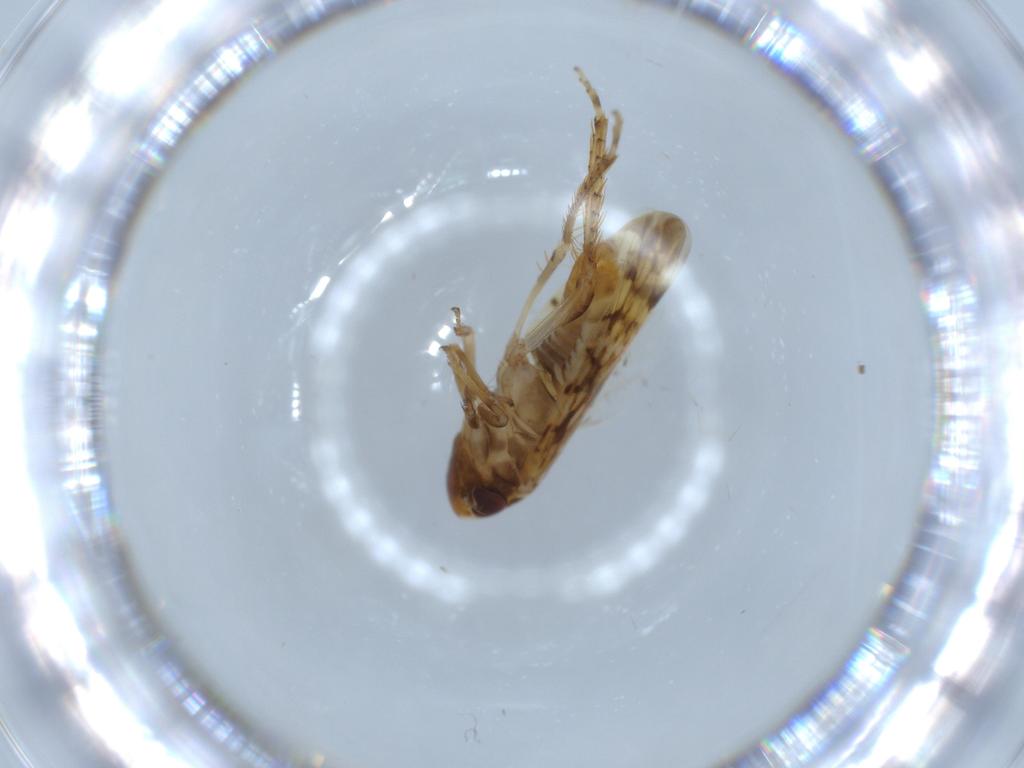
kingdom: Animalia
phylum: Arthropoda
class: Insecta
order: Hemiptera
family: Cicadellidae
